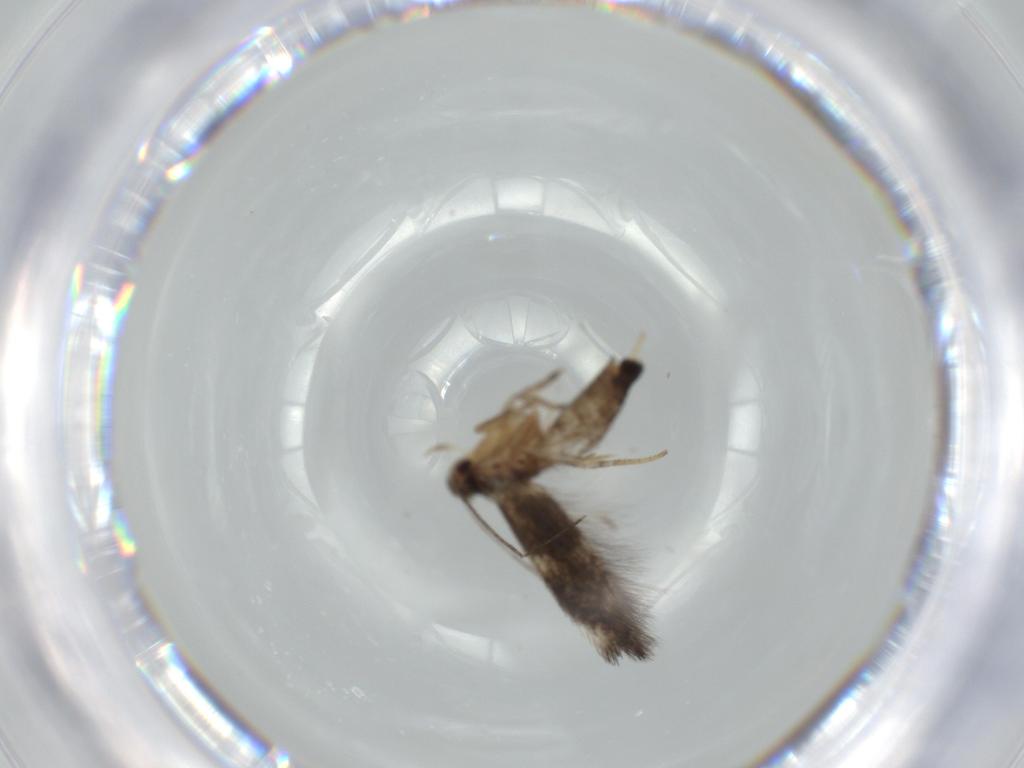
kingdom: Animalia
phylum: Arthropoda
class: Insecta
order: Lepidoptera
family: Cosmopterigidae
